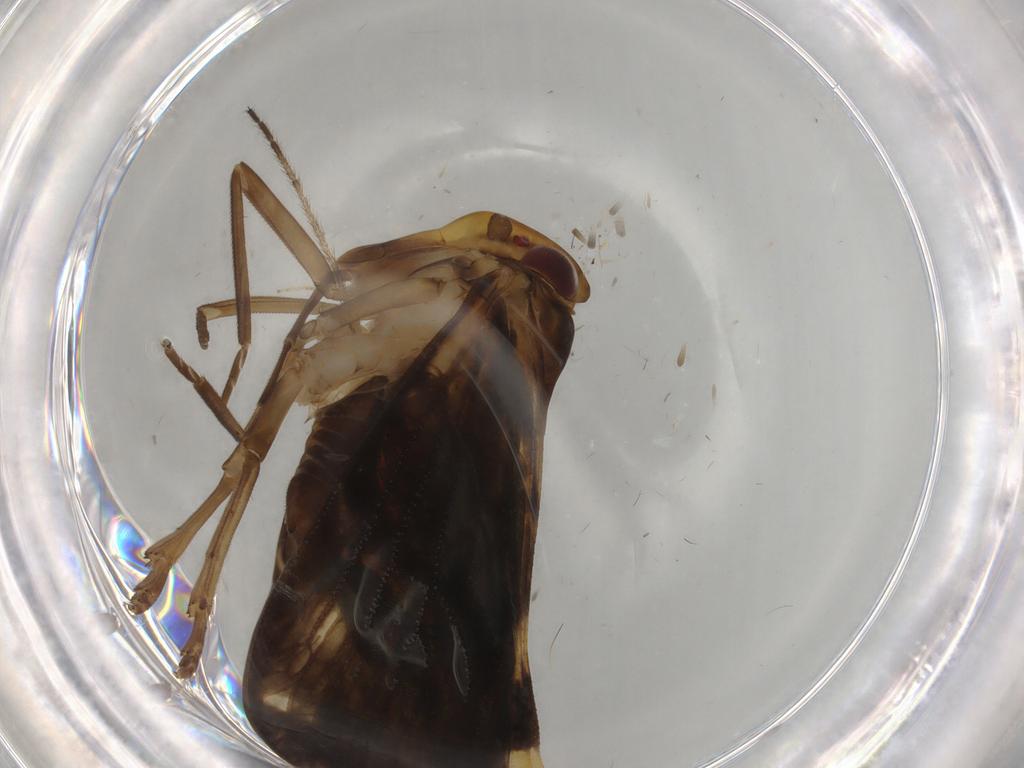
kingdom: Animalia
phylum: Arthropoda
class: Insecta
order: Hemiptera
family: Cixiidae
